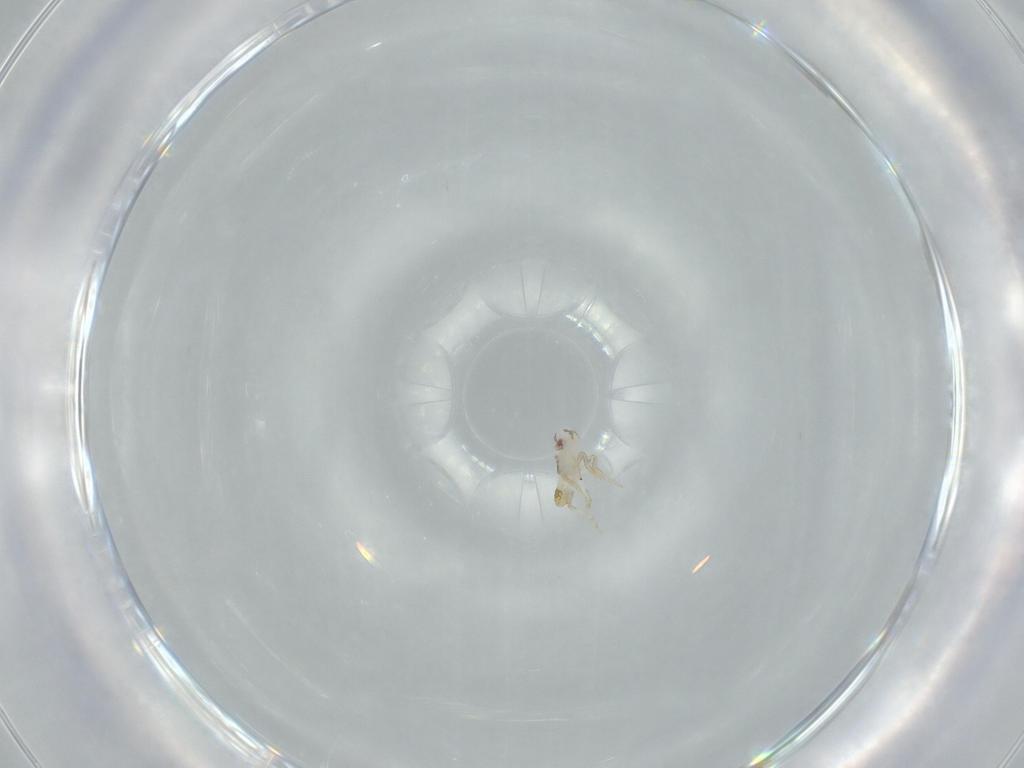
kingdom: Animalia
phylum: Arthropoda
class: Insecta
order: Hemiptera
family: Delphacidae
